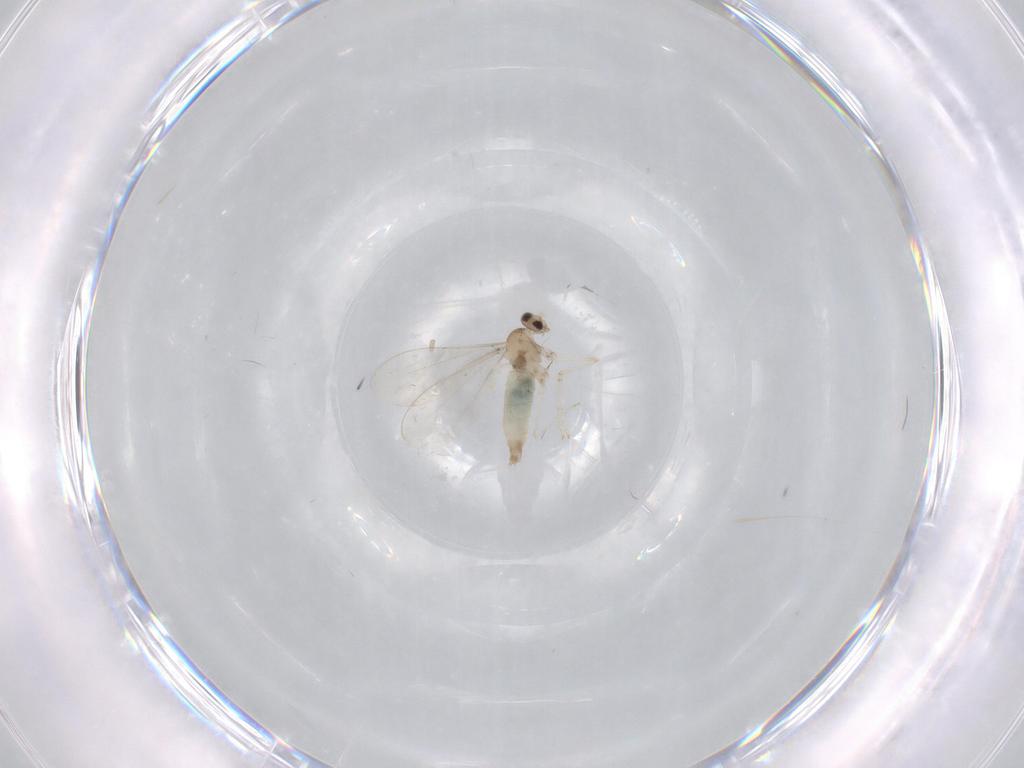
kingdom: Animalia
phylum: Arthropoda
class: Insecta
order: Diptera
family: Cecidomyiidae
